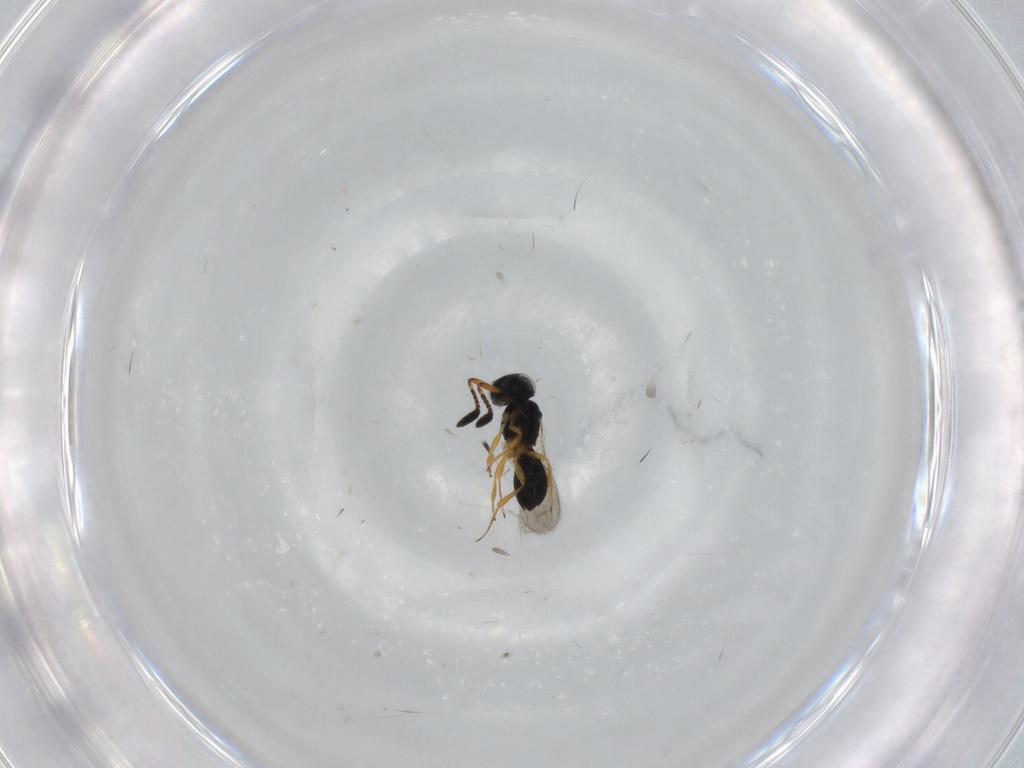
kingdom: Animalia
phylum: Arthropoda
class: Insecta
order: Hymenoptera
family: Scelionidae
